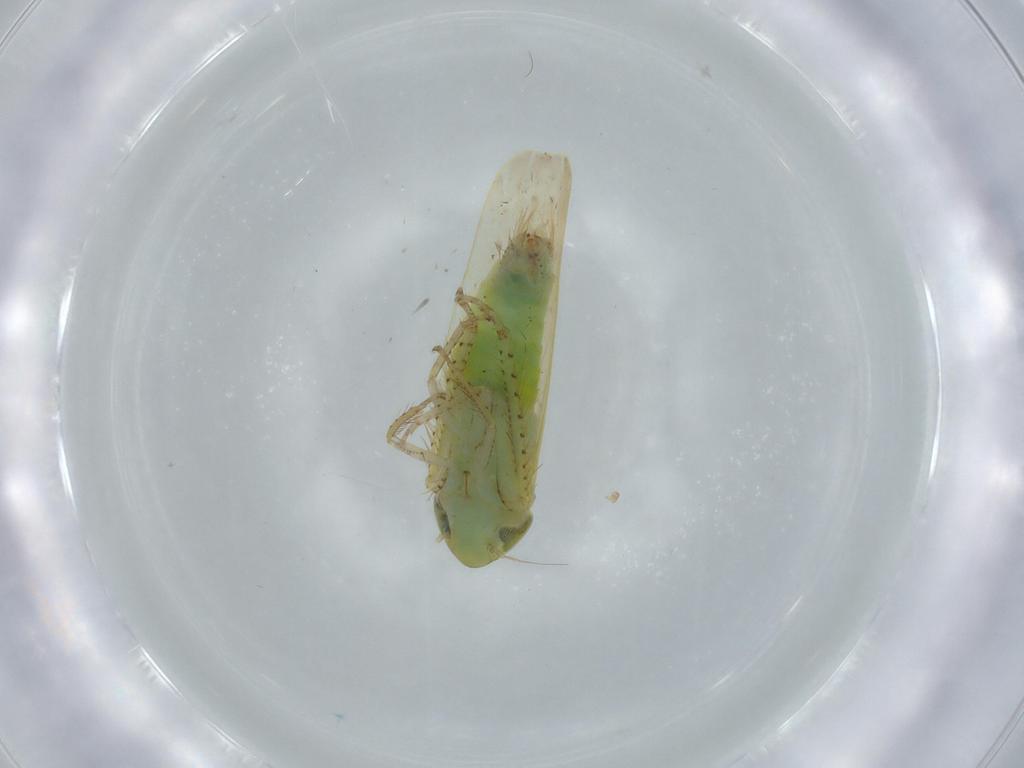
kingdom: Animalia
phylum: Arthropoda
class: Insecta
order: Hemiptera
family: Cicadellidae
